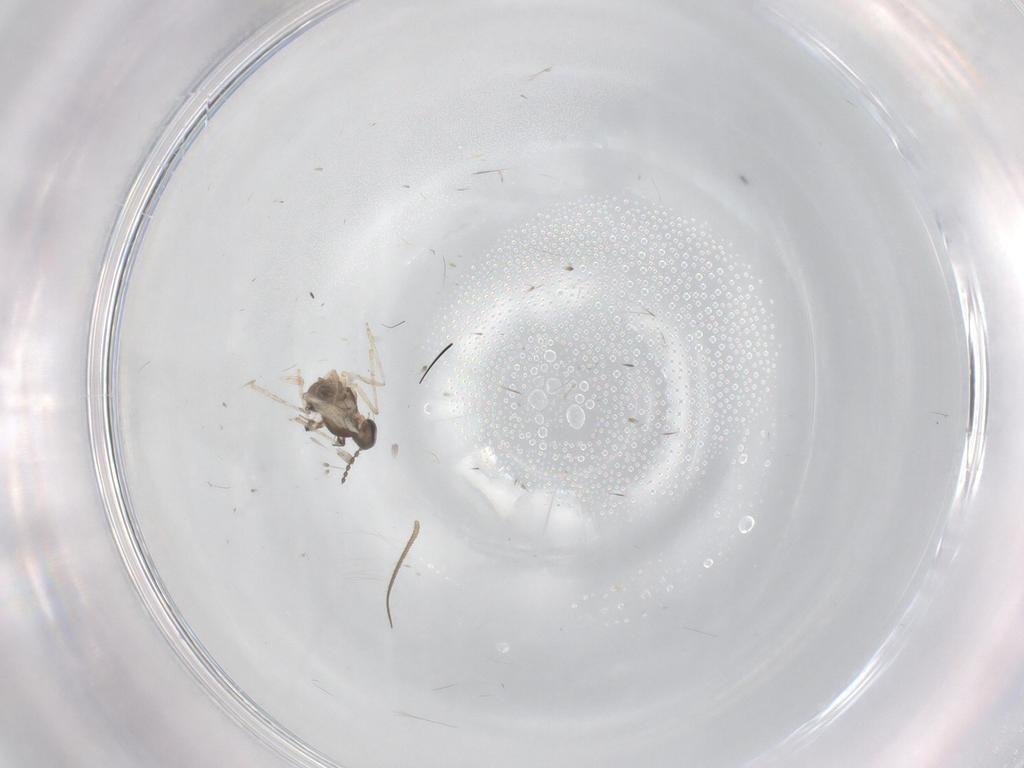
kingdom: Animalia
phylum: Arthropoda
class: Insecta
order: Diptera
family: Cecidomyiidae
